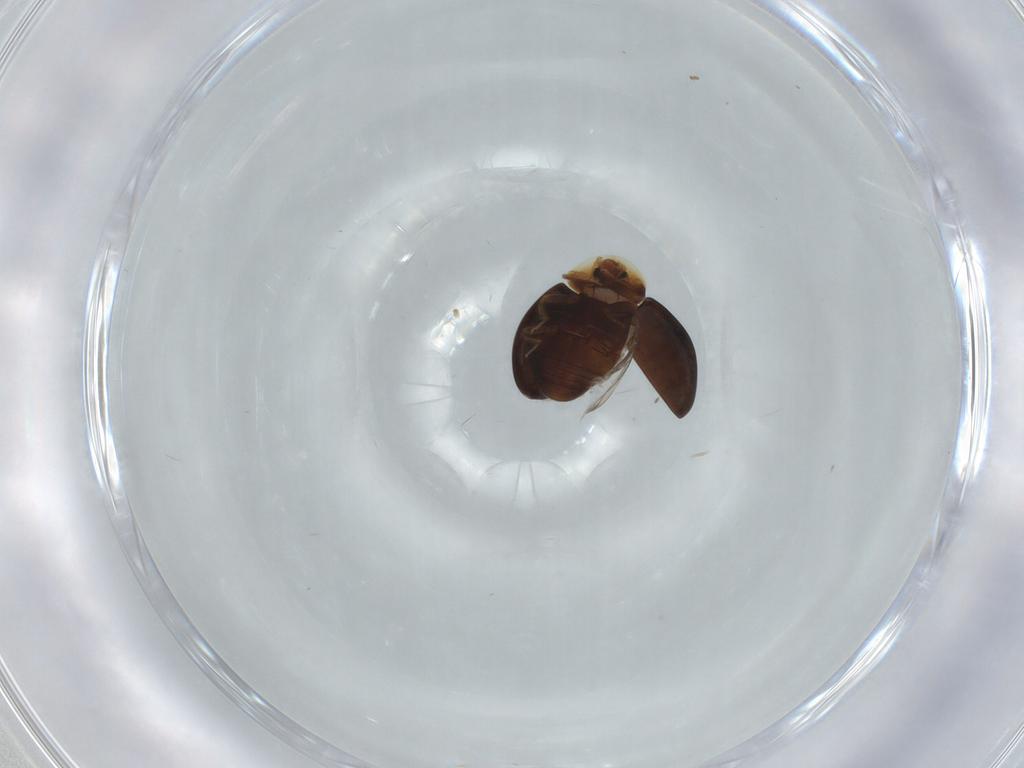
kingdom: Animalia
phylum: Arthropoda
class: Insecta
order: Coleoptera
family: Corylophidae
